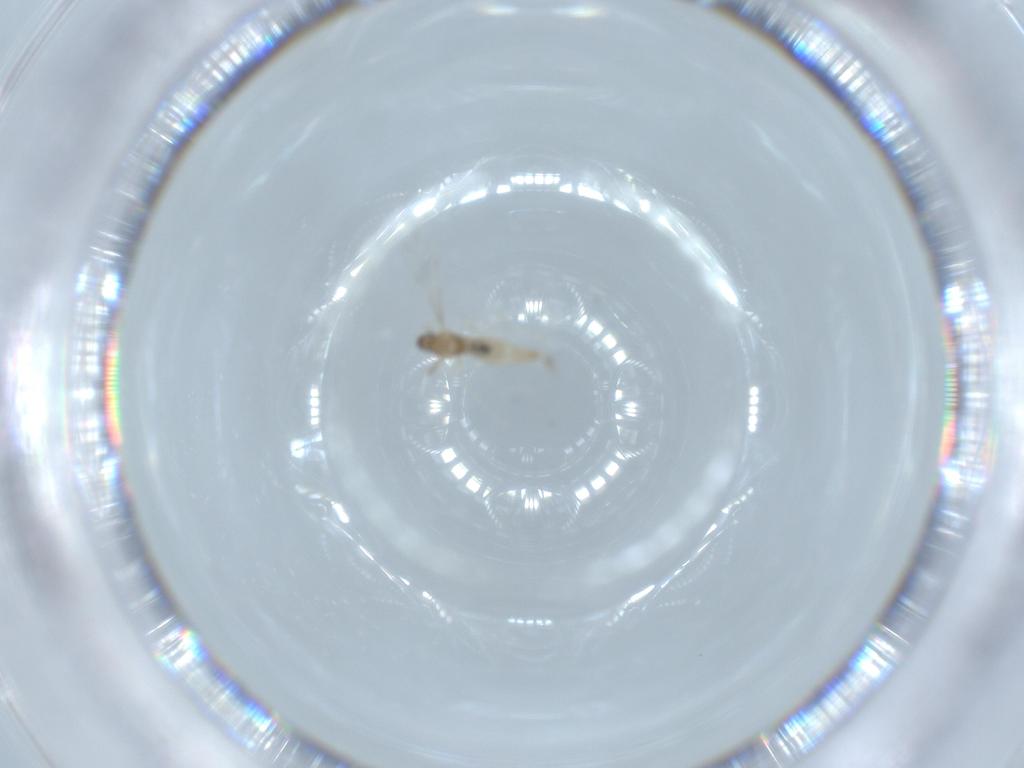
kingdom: Animalia
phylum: Arthropoda
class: Insecta
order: Diptera
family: Cecidomyiidae
